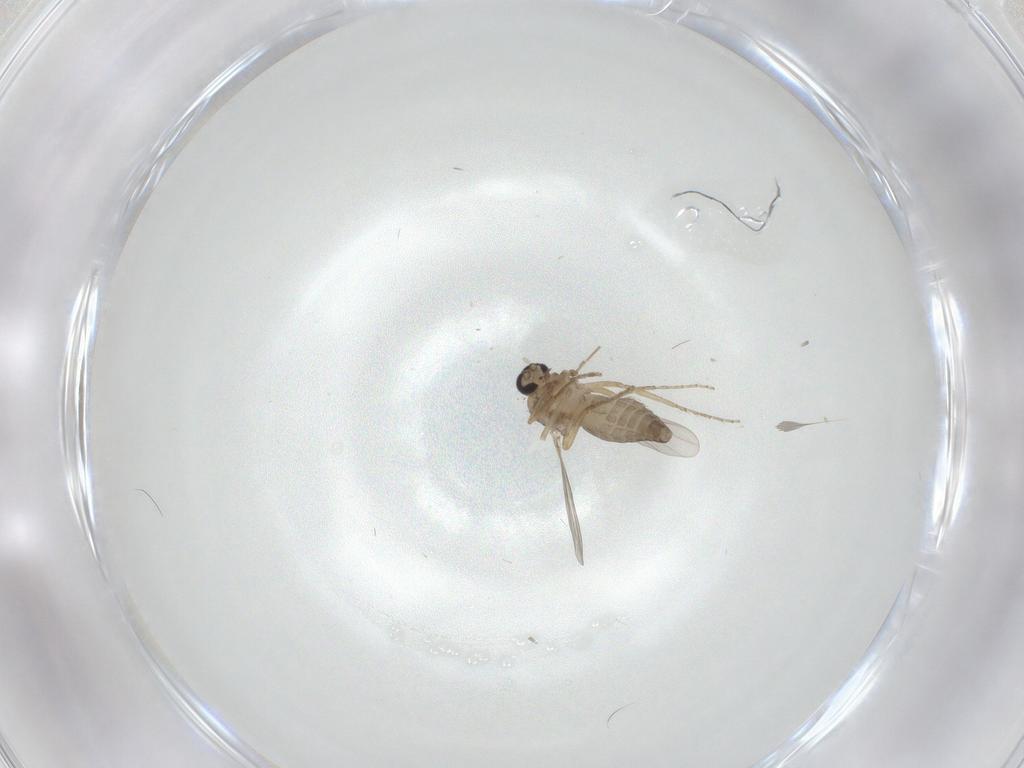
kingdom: Animalia
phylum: Arthropoda
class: Insecta
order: Diptera
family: Ceratopogonidae
